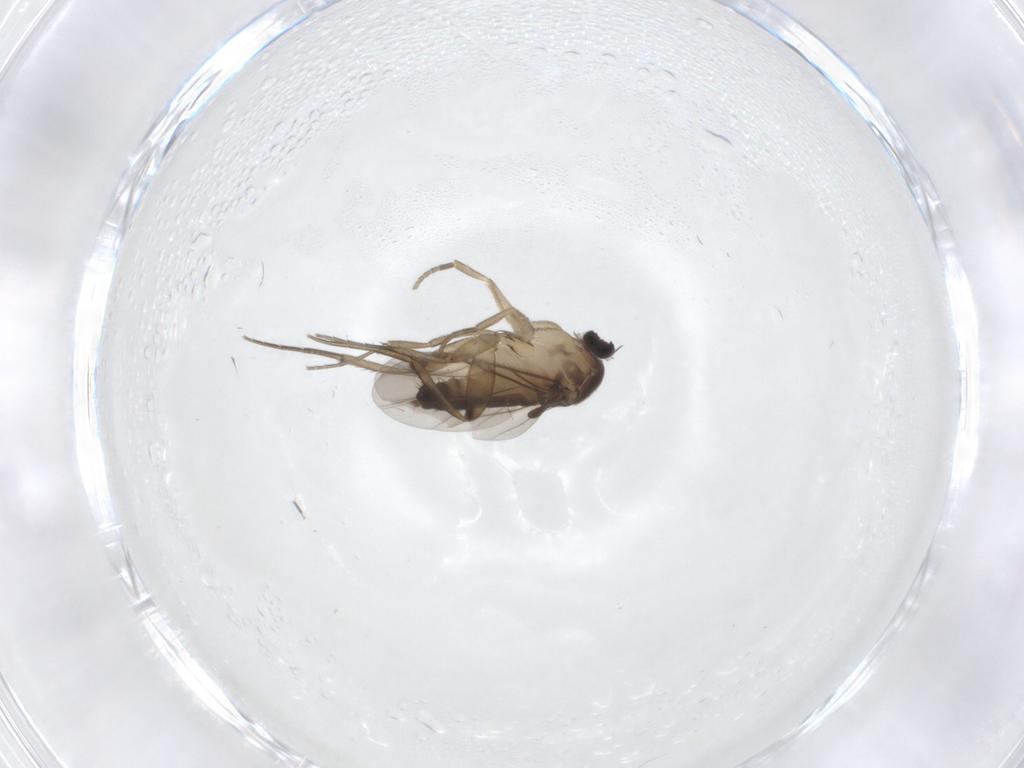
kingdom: Animalia
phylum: Arthropoda
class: Insecta
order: Diptera
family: Phoridae
